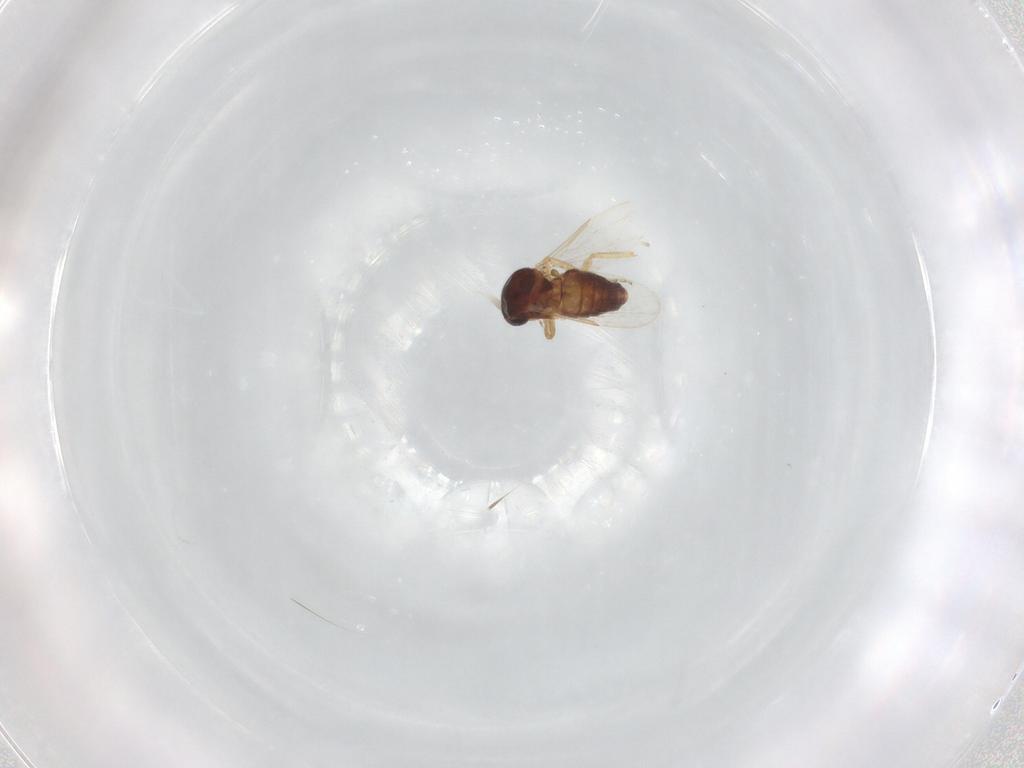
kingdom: Animalia
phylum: Arthropoda
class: Insecta
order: Diptera
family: Ceratopogonidae
